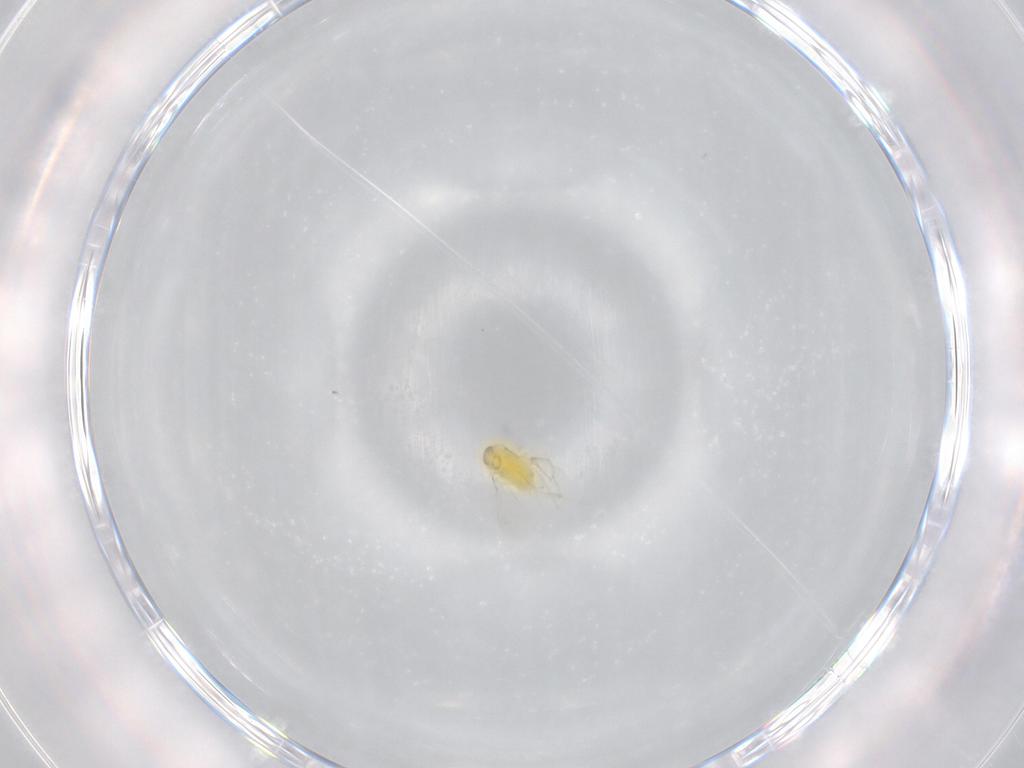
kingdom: Animalia
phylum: Arthropoda
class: Insecta
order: Hymenoptera
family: Aphelinidae
